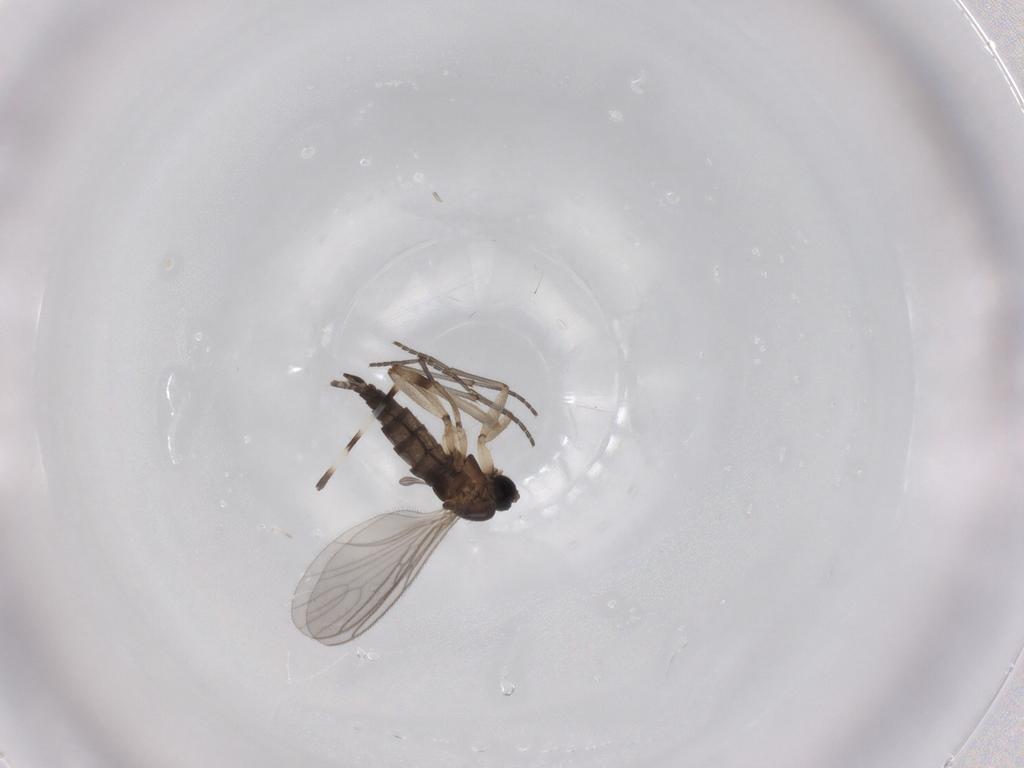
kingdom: Animalia
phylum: Arthropoda
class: Insecta
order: Diptera
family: Sciaridae
